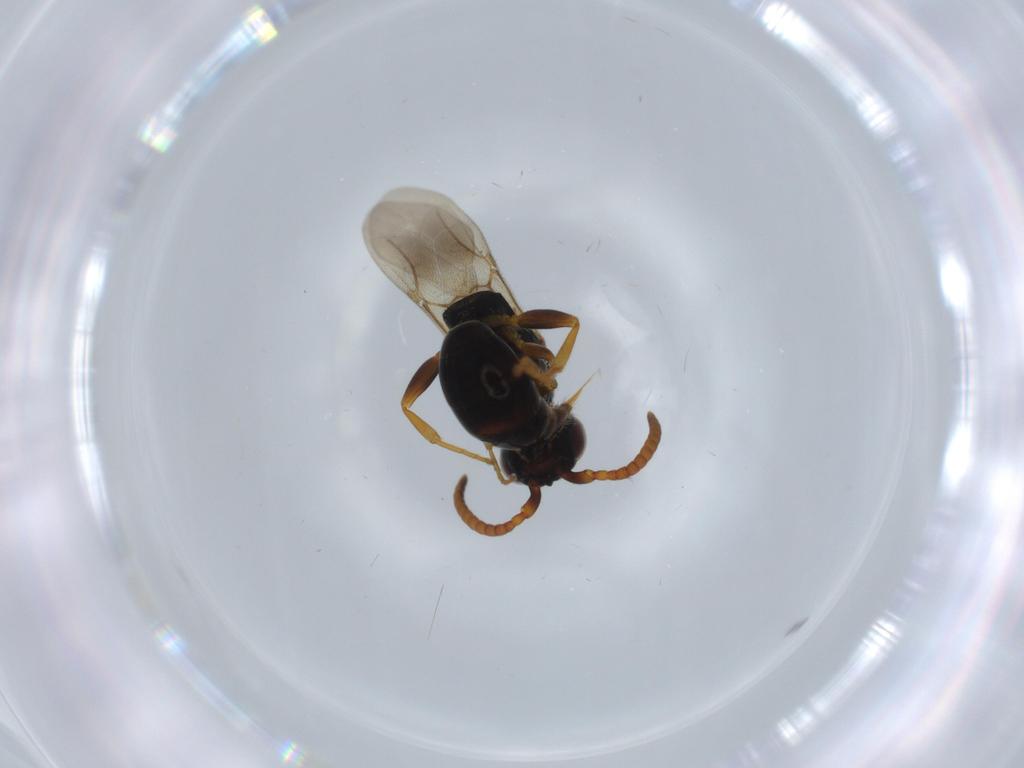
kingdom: Animalia
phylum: Arthropoda
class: Insecta
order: Hymenoptera
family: Bethylidae
